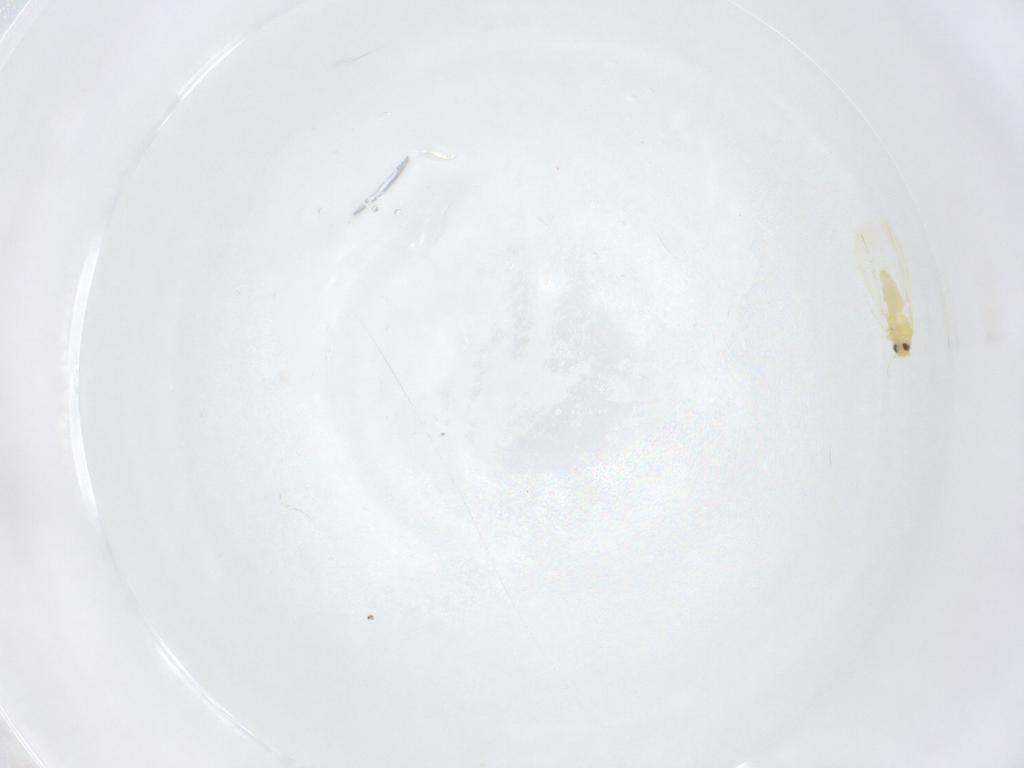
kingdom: Animalia
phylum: Arthropoda
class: Insecta
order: Hemiptera
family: Aleyrodidae
